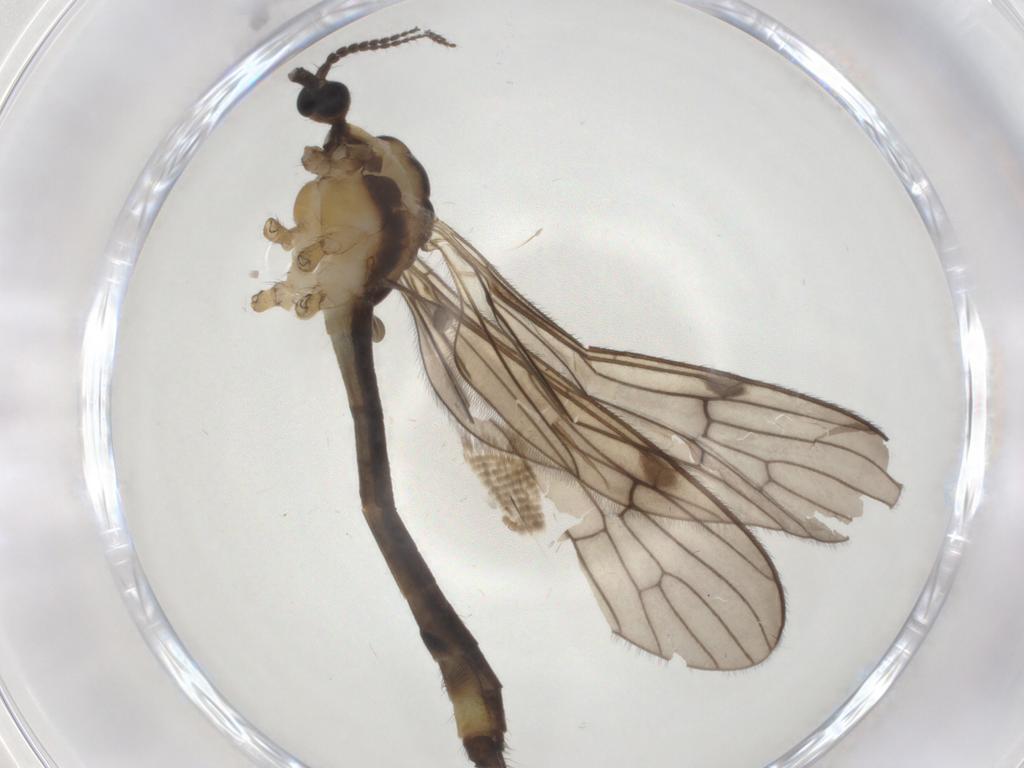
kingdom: Animalia
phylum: Arthropoda
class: Insecta
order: Diptera
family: Limoniidae
